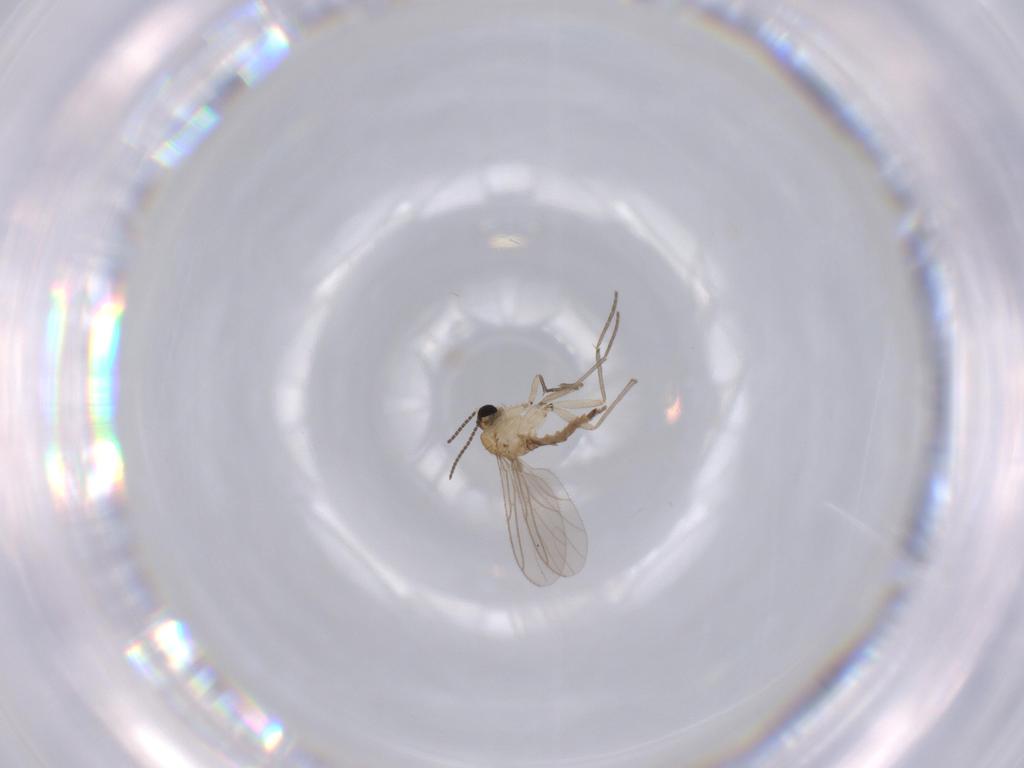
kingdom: Animalia
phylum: Arthropoda
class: Insecta
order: Diptera
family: Sciaridae
